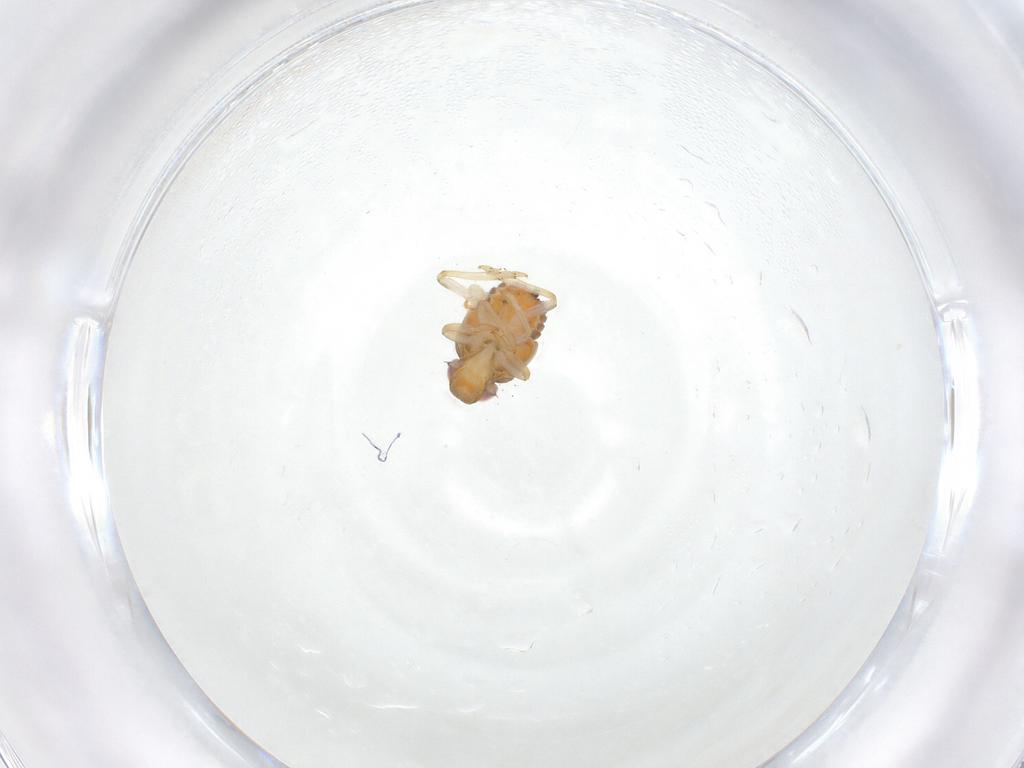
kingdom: Animalia
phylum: Arthropoda
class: Insecta
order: Hemiptera
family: Issidae
